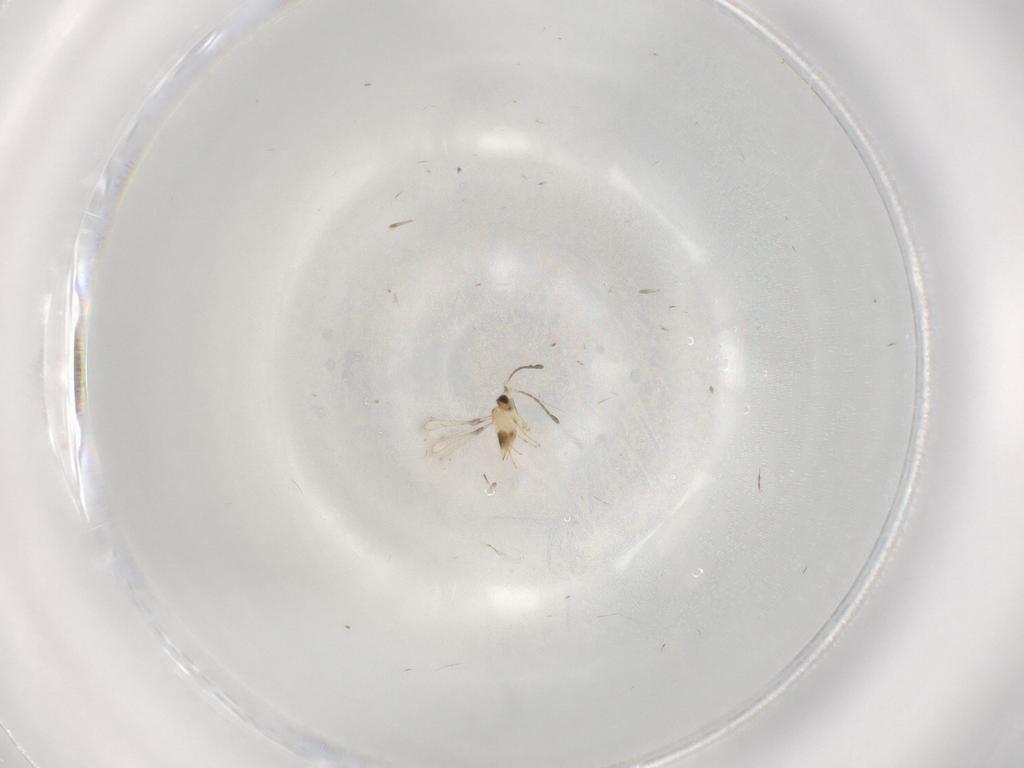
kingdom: Animalia
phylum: Arthropoda
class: Insecta
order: Hymenoptera
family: Mymaridae
